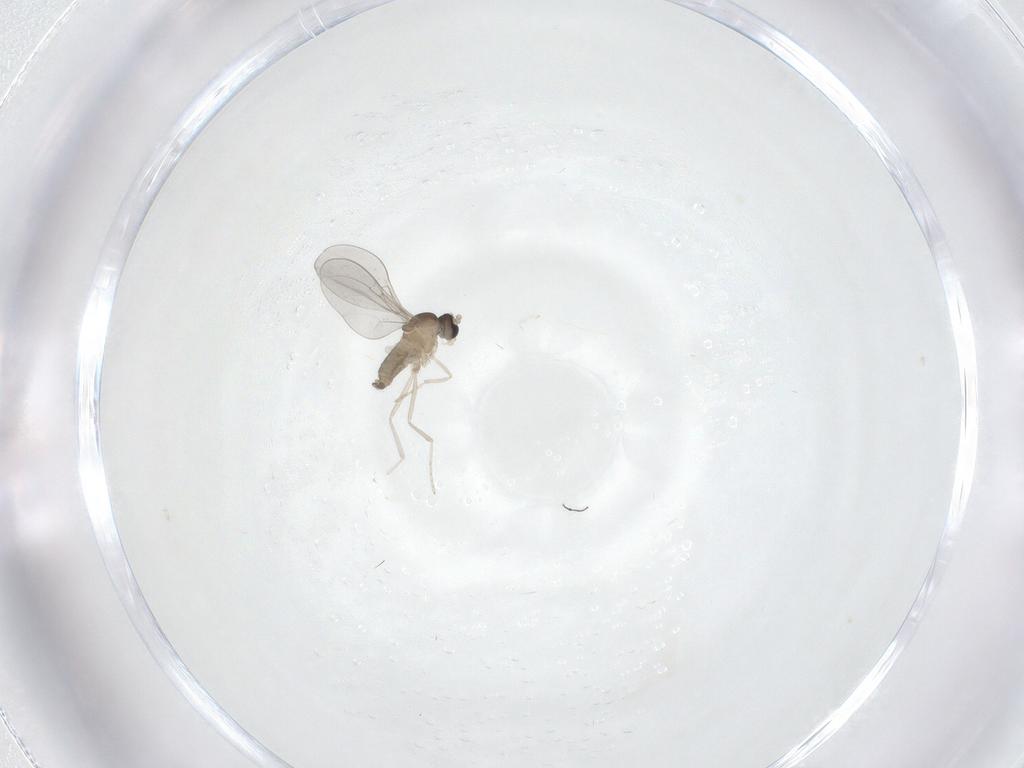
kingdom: Animalia
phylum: Arthropoda
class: Insecta
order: Diptera
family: Limoniidae
